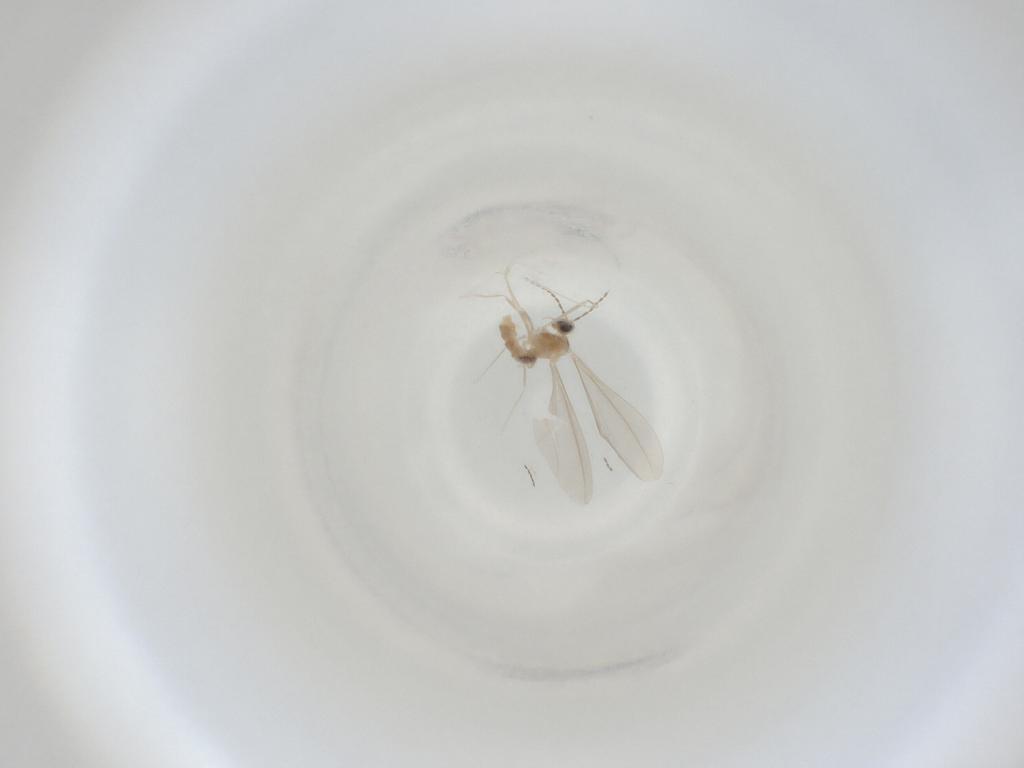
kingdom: Animalia
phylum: Arthropoda
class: Insecta
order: Diptera
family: Cecidomyiidae
